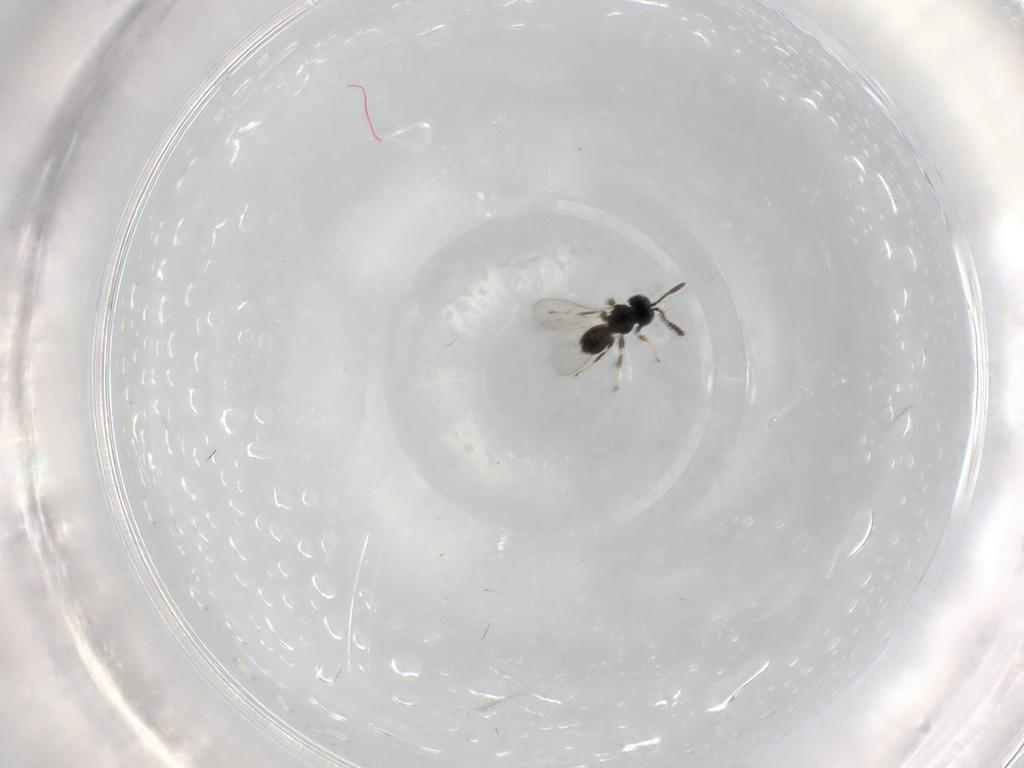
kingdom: Animalia
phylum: Arthropoda
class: Insecta
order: Hymenoptera
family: Scelionidae
